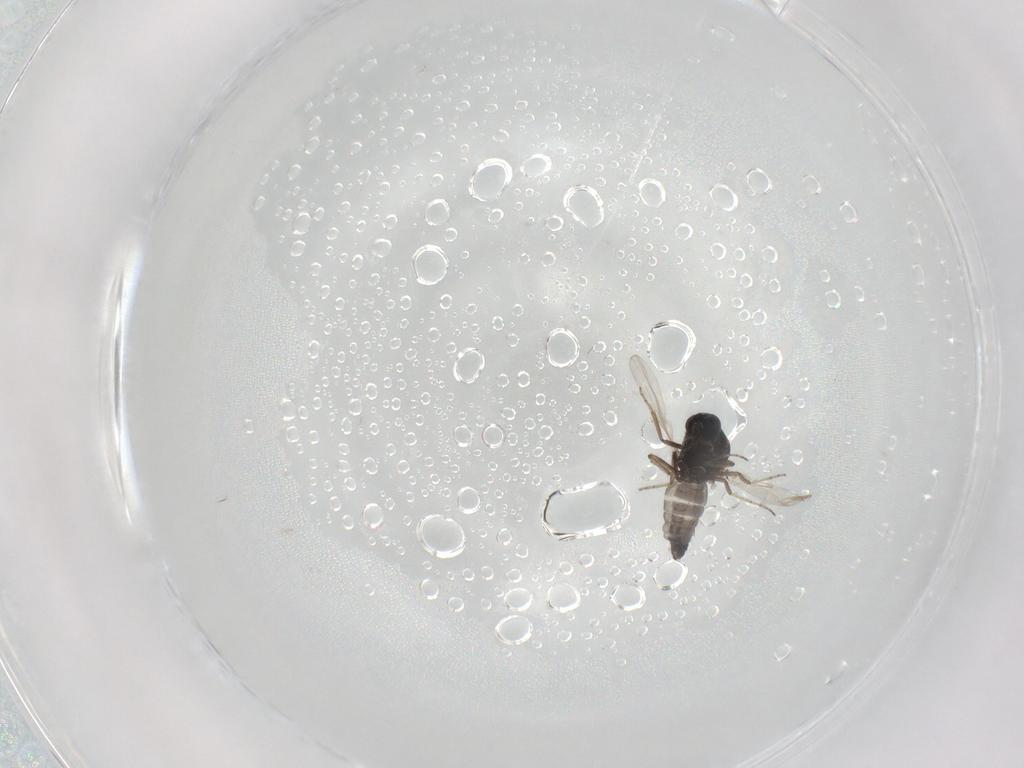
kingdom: Animalia
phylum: Arthropoda
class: Insecta
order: Diptera
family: Ceratopogonidae
